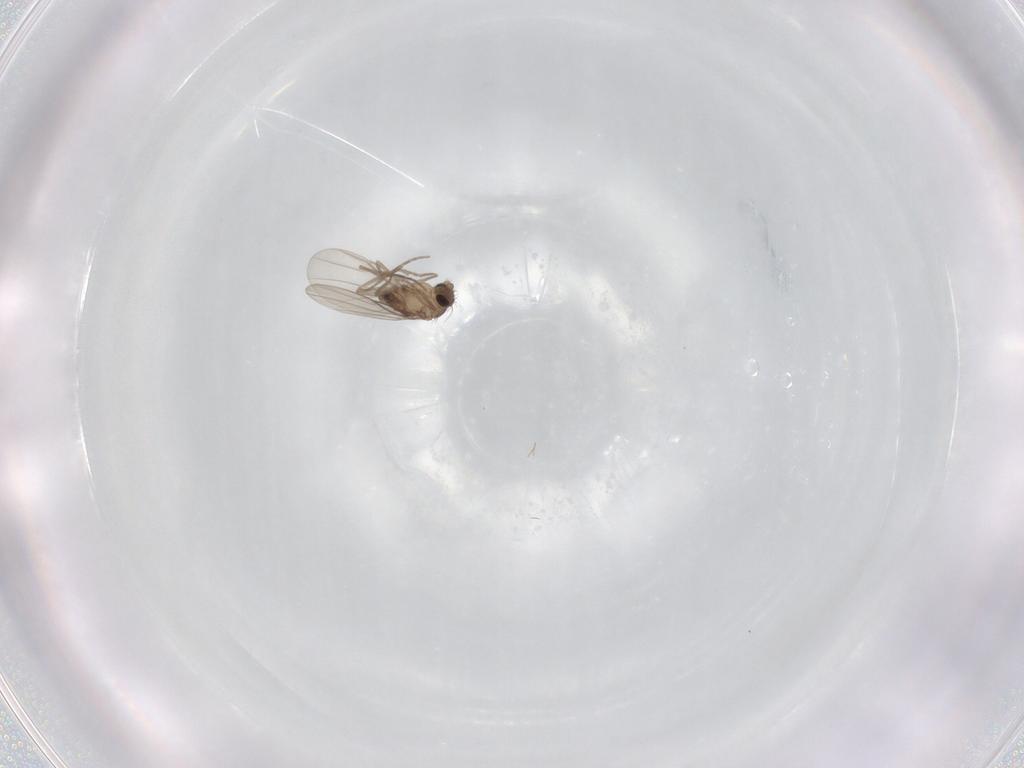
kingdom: Animalia
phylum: Arthropoda
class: Insecta
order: Diptera
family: Phoridae
